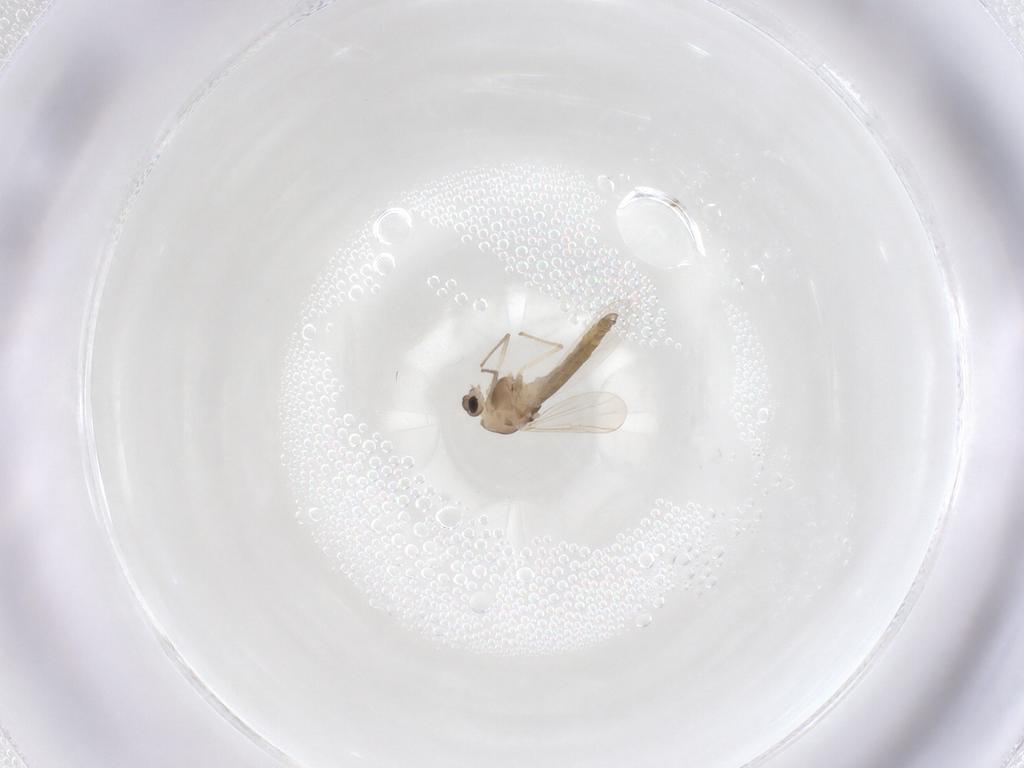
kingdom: Animalia
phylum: Arthropoda
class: Insecta
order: Diptera
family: Chironomidae
